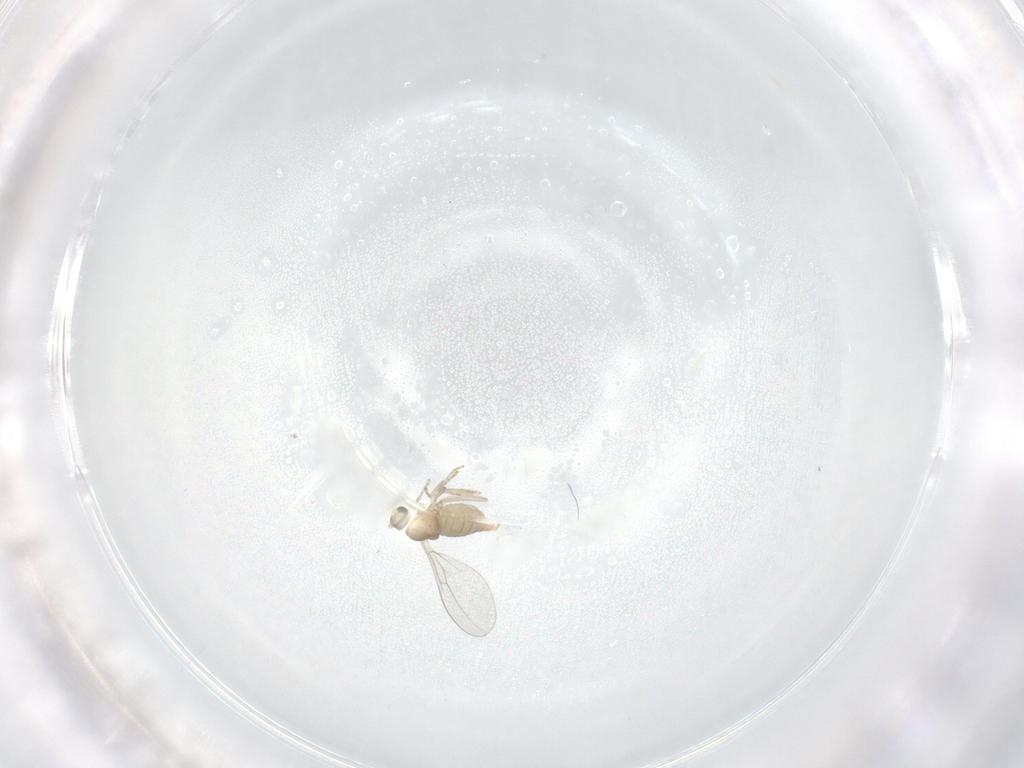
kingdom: Animalia
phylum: Arthropoda
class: Insecta
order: Diptera
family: Cecidomyiidae
